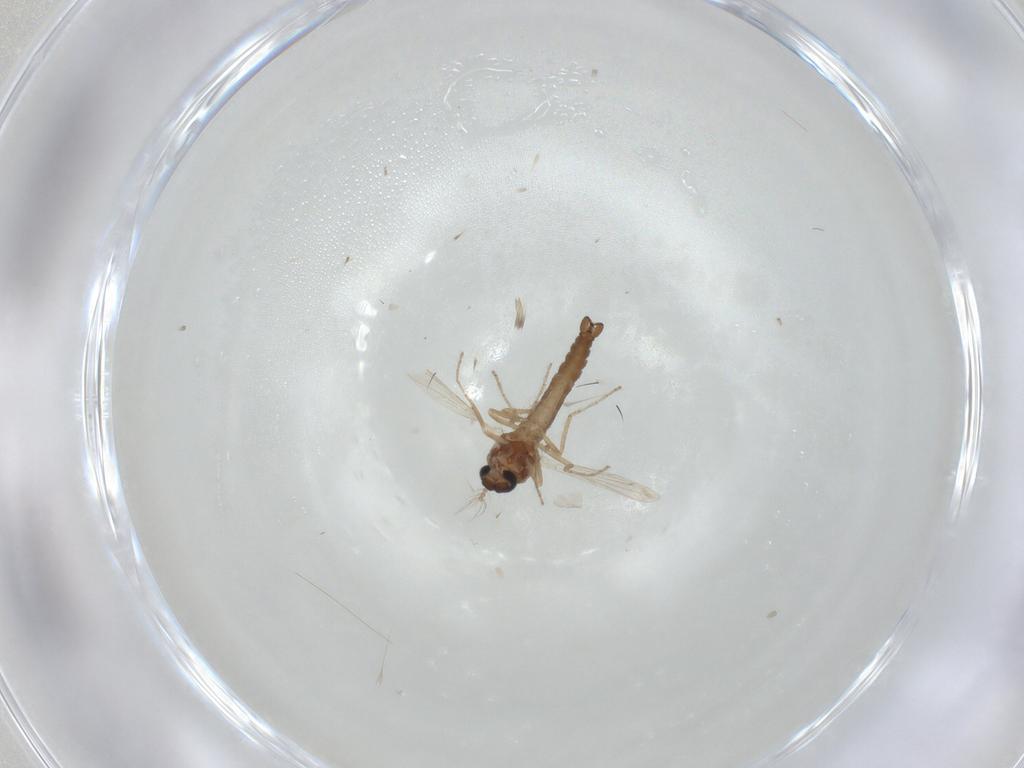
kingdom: Animalia
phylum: Arthropoda
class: Insecta
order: Diptera
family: Ceratopogonidae
